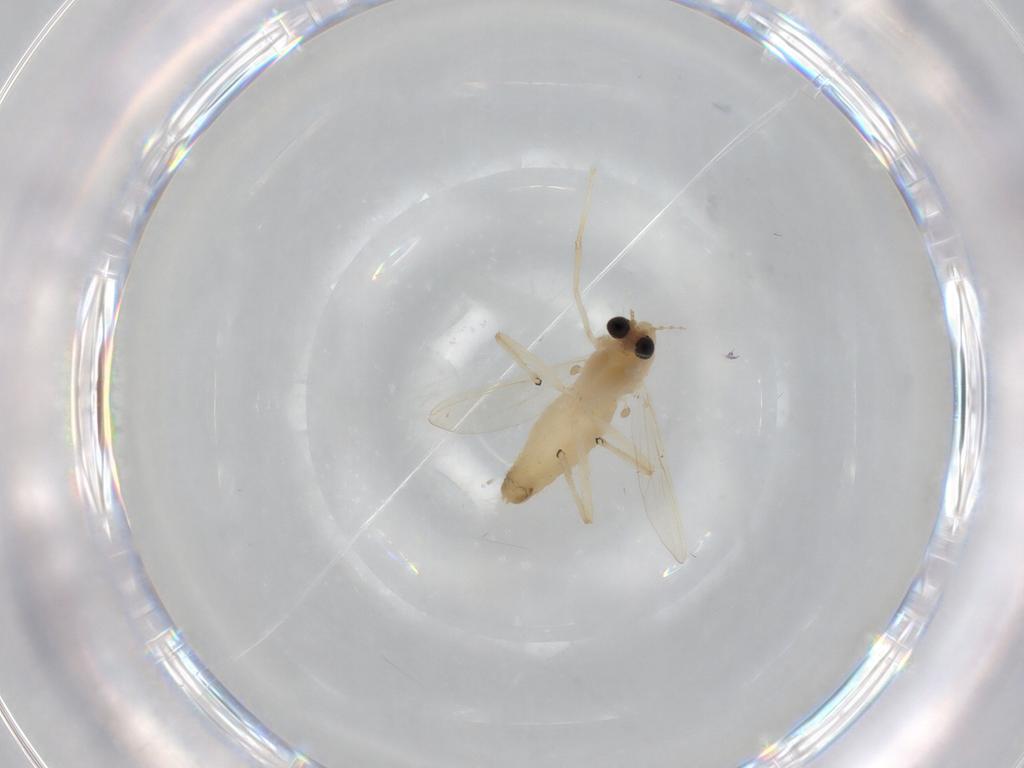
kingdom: Animalia
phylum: Arthropoda
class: Insecta
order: Diptera
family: Chironomidae
